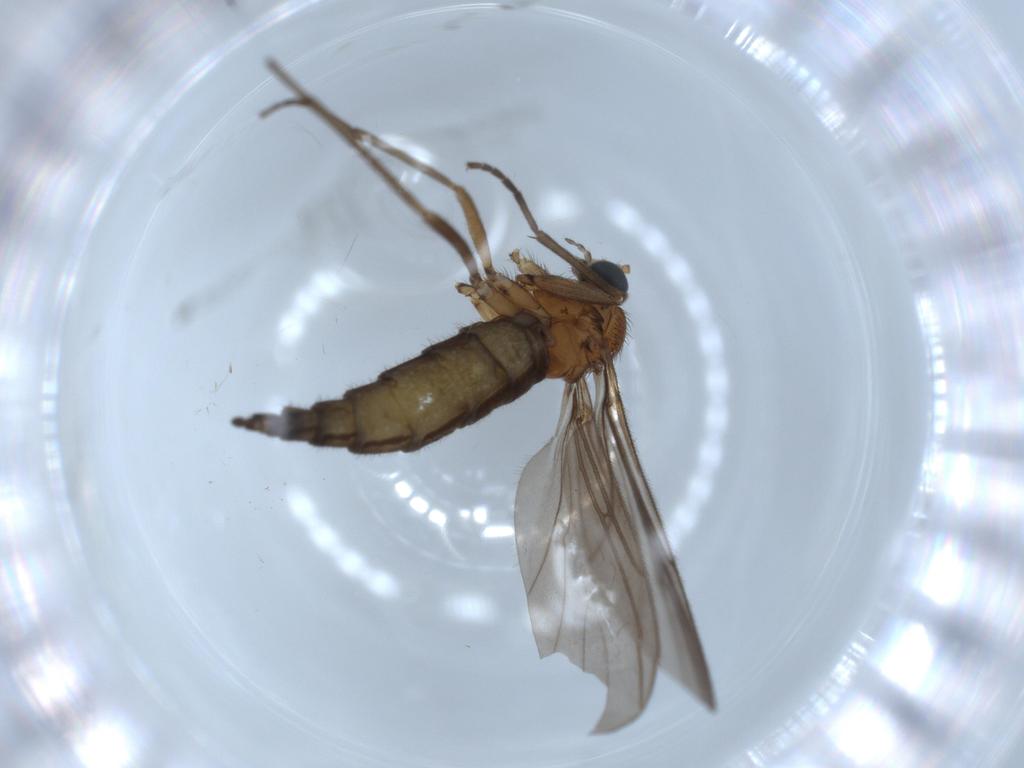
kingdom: Animalia
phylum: Arthropoda
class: Insecta
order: Diptera
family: Sciaridae
